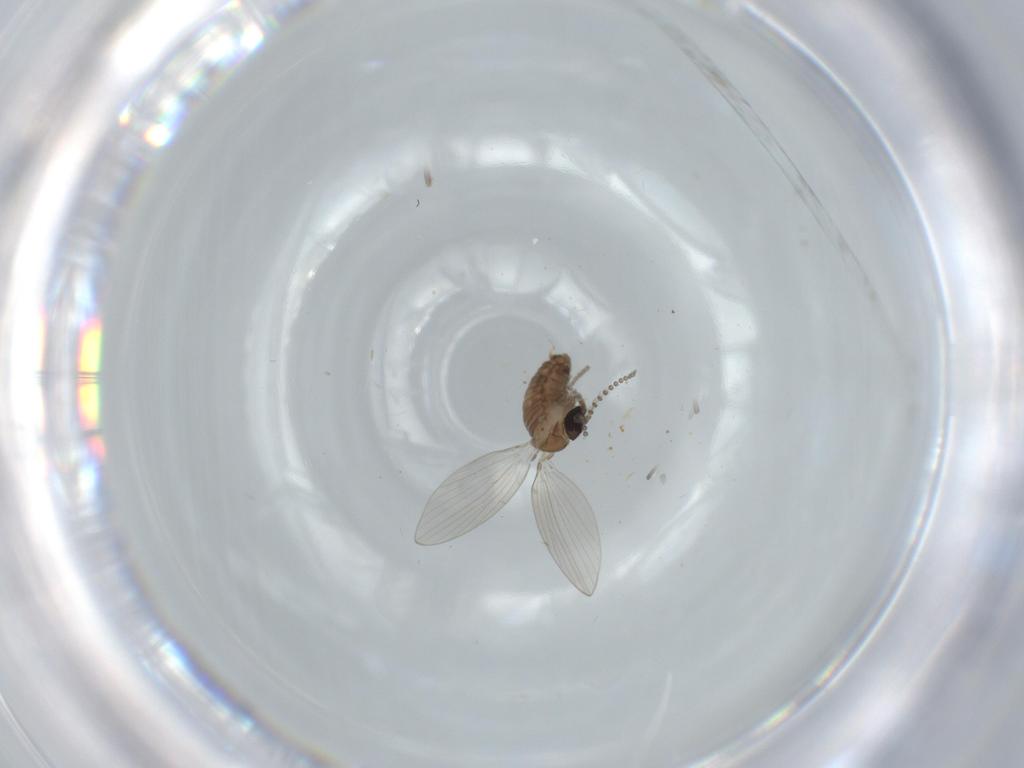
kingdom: Animalia
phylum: Arthropoda
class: Insecta
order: Diptera
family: Psychodidae
